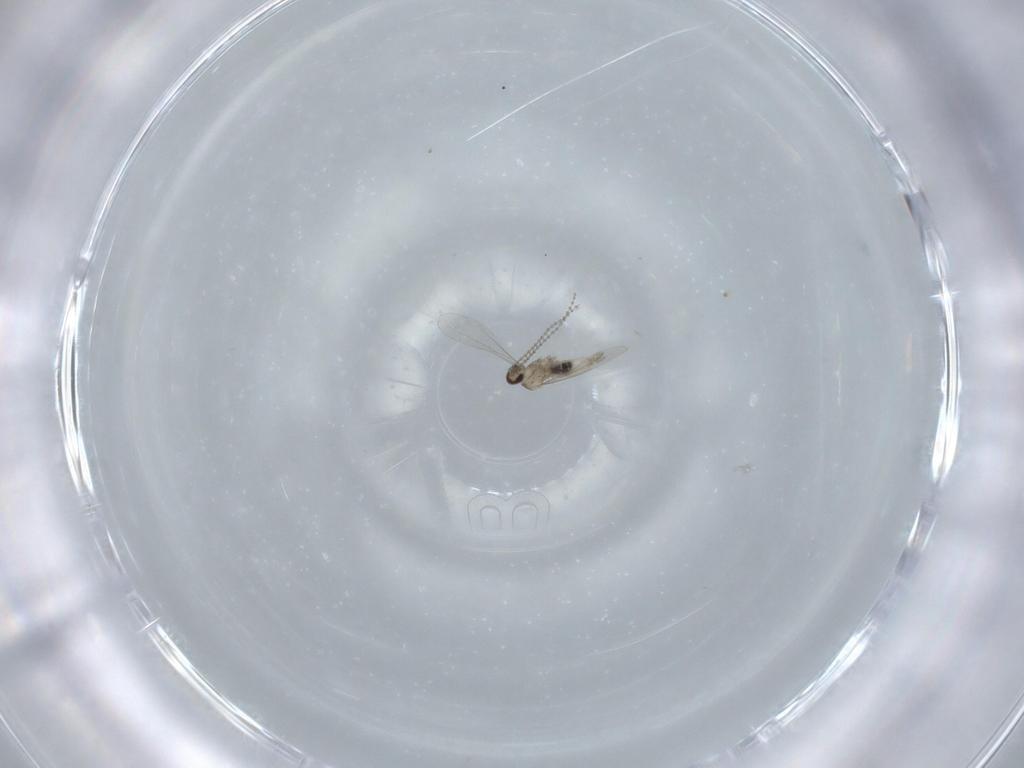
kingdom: Animalia
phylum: Arthropoda
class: Insecta
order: Diptera
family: Cecidomyiidae
